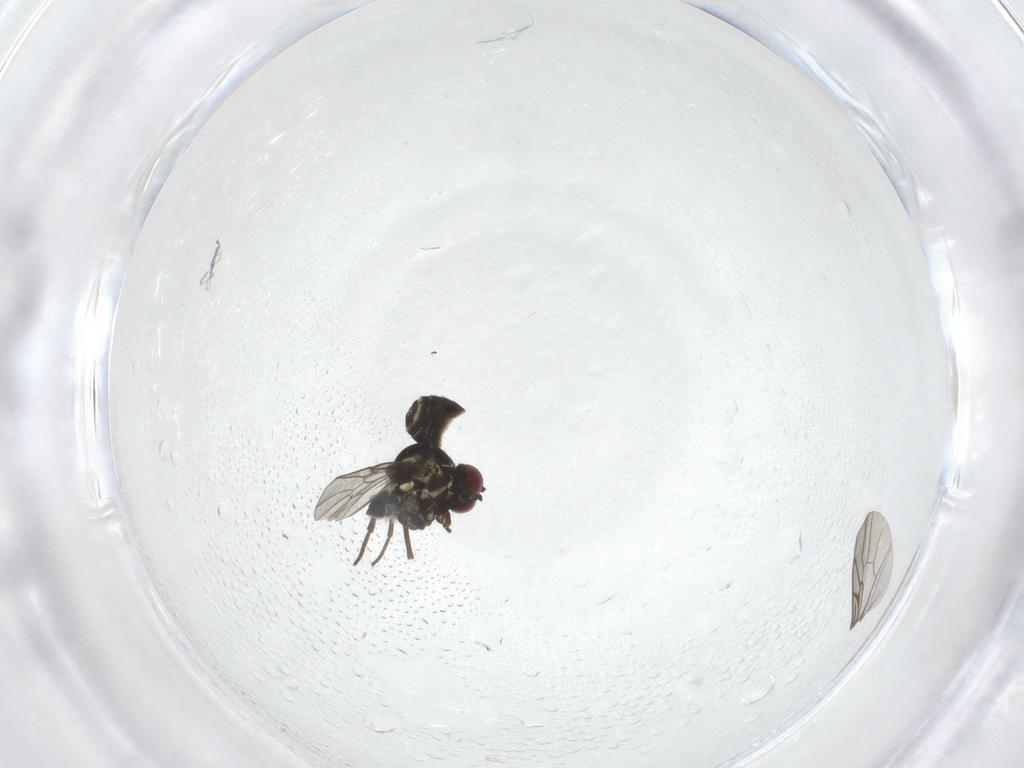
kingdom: Animalia
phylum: Arthropoda
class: Insecta
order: Diptera
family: Mythicomyiidae
